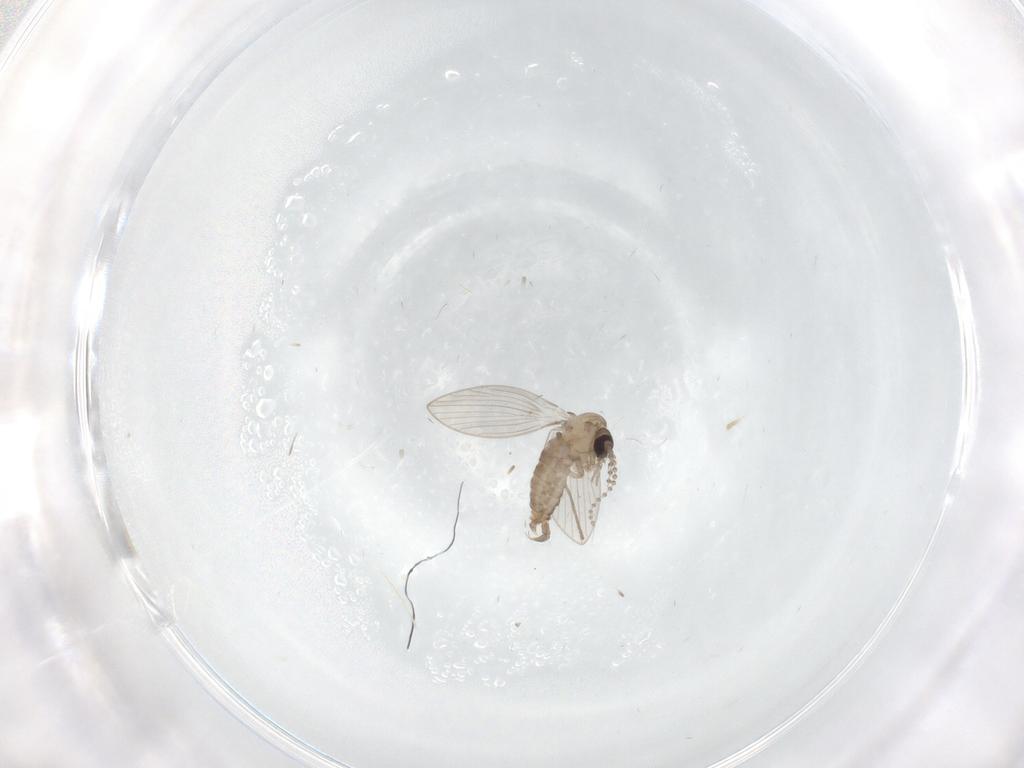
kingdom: Animalia
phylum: Arthropoda
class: Insecta
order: Diptera
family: Psychodidae
